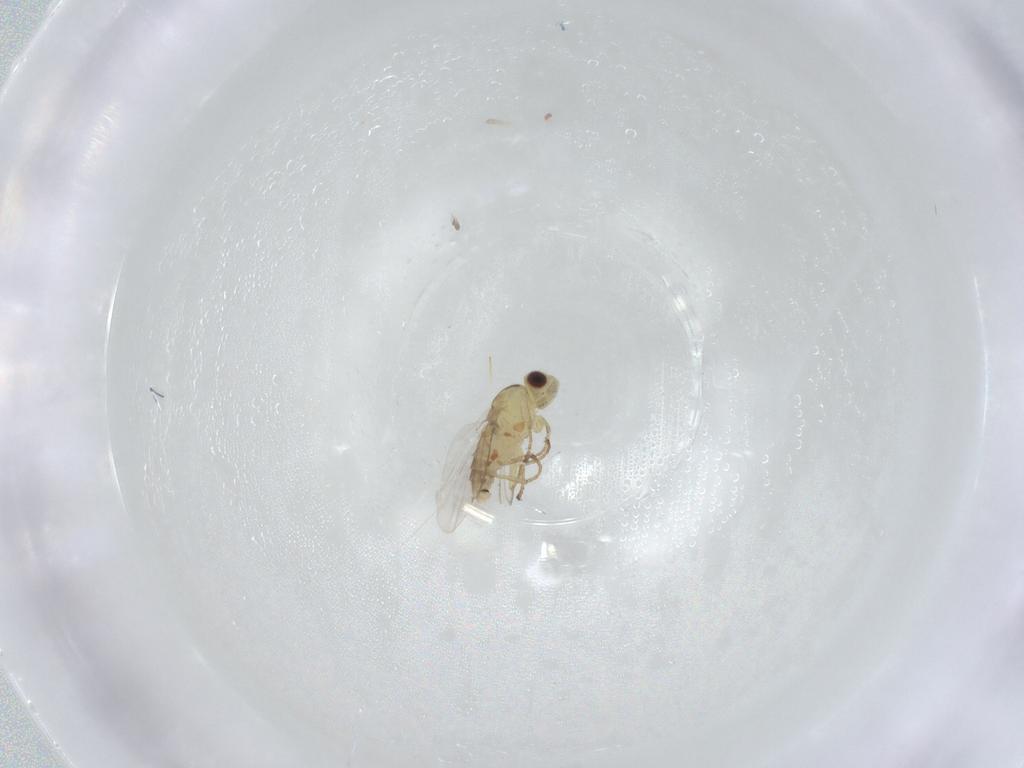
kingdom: Animalia
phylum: Arthropoda
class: Insecta
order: Diptera
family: Agromyzidae
